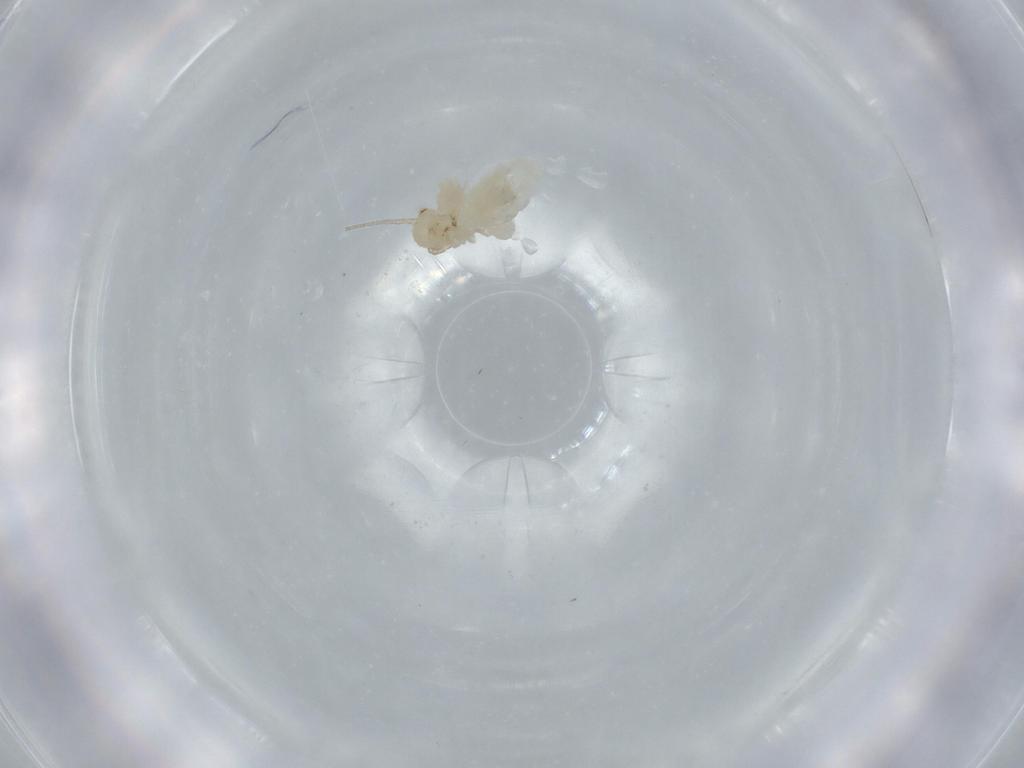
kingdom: Animalia
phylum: Arthropoda
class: Insecta
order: Psocodea
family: Caeciliusidae
